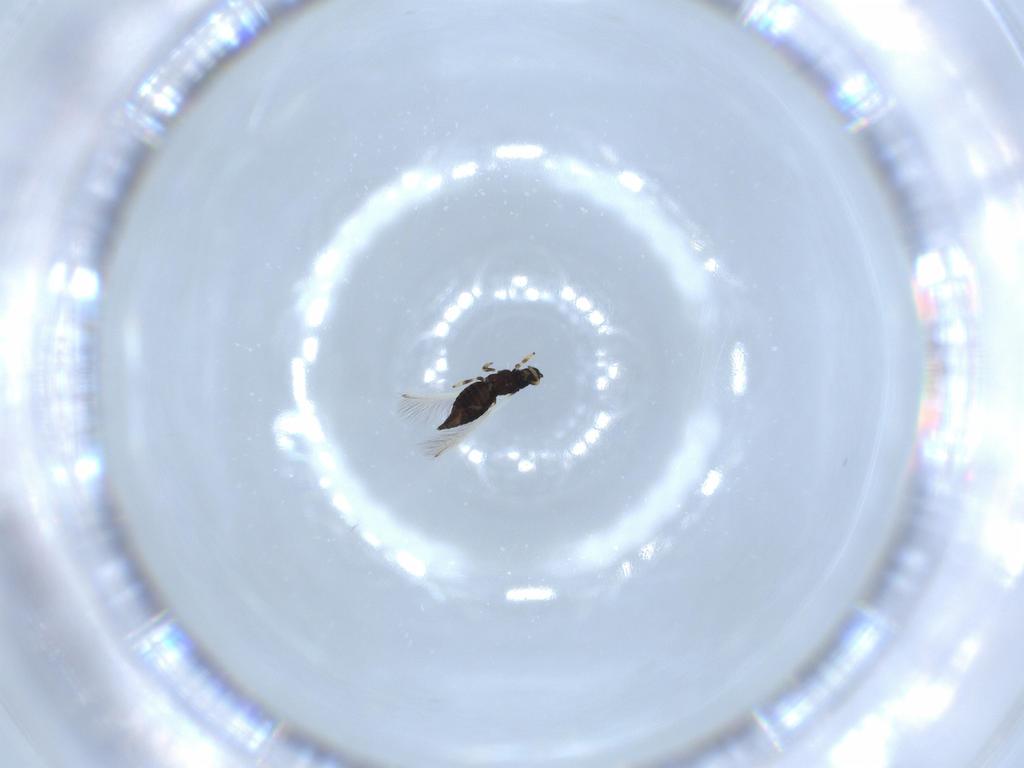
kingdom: Animalia
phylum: Arthropoda
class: Insecta
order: Thysanoptera
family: Thripidae
